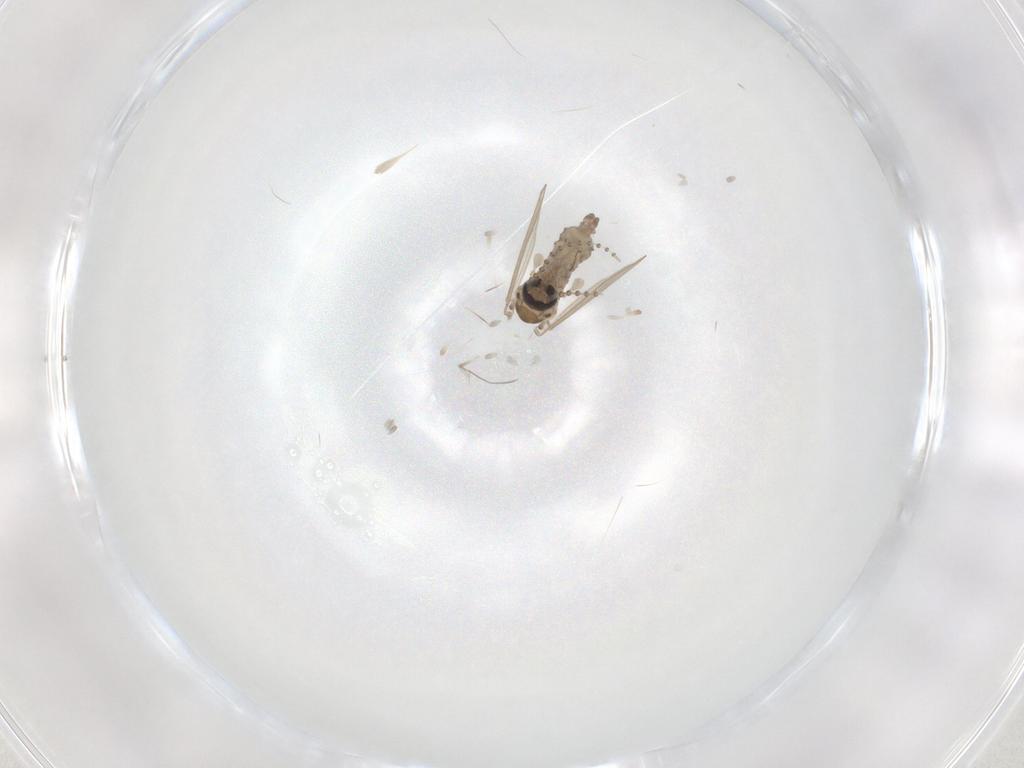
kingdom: Animalia
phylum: Arthropoda
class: Insecta
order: Diptera
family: Psychodidae
